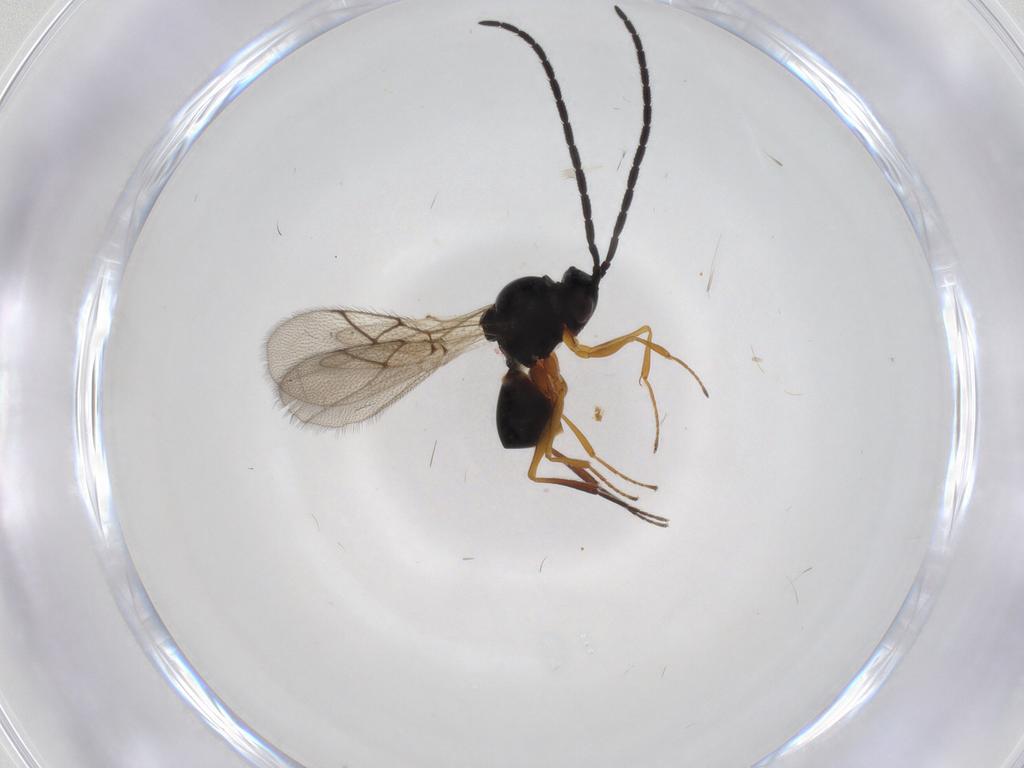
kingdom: Animalia
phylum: Arthropoda
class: Insecta
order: Hymenoptera
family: Figitidae
